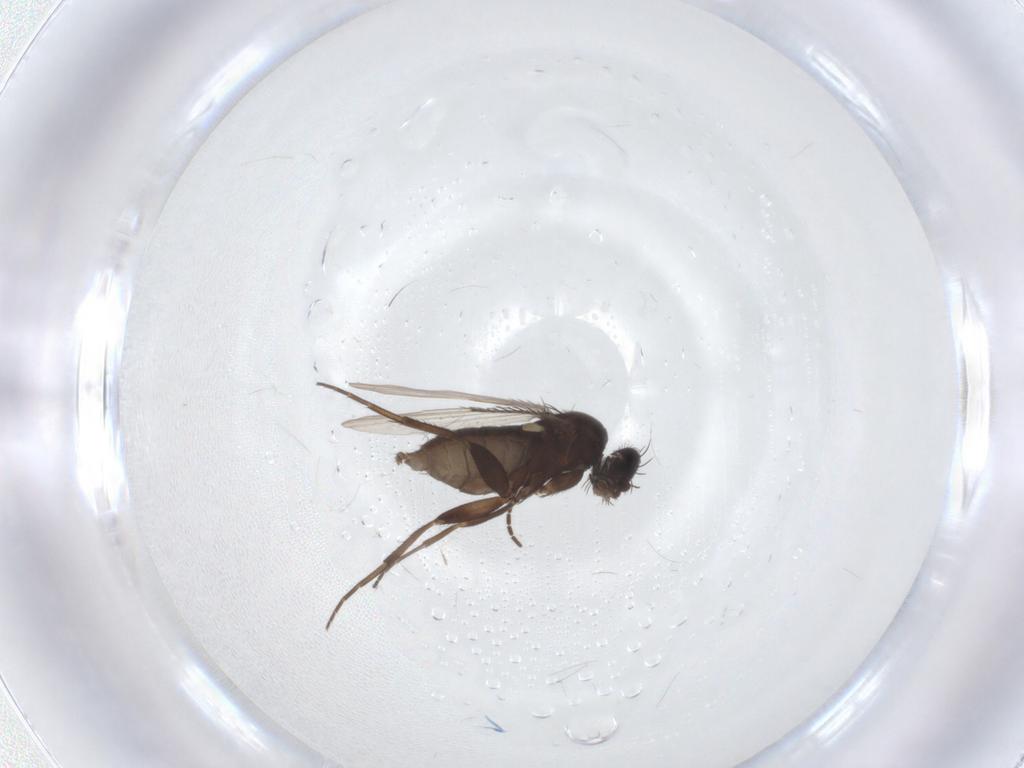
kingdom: Animalia
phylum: Arthropoda
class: Insecta
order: Diptera
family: Phoridae
